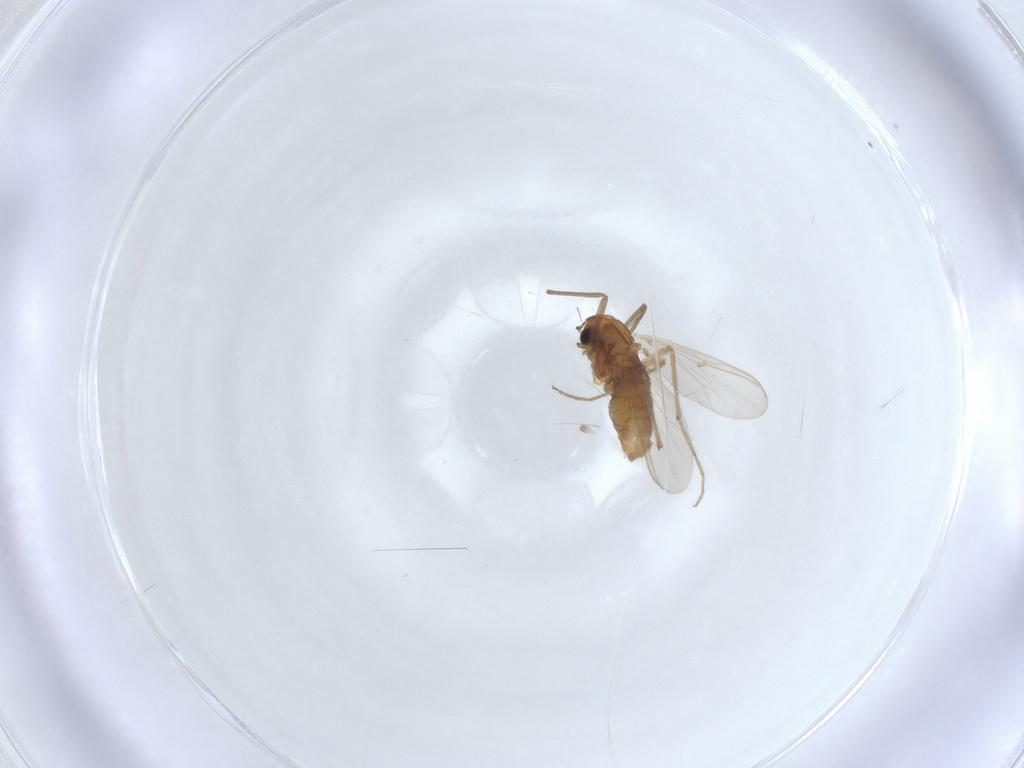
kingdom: Animalia
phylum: Arthropoda
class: Insecta
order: Diptera
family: Chironomidae
